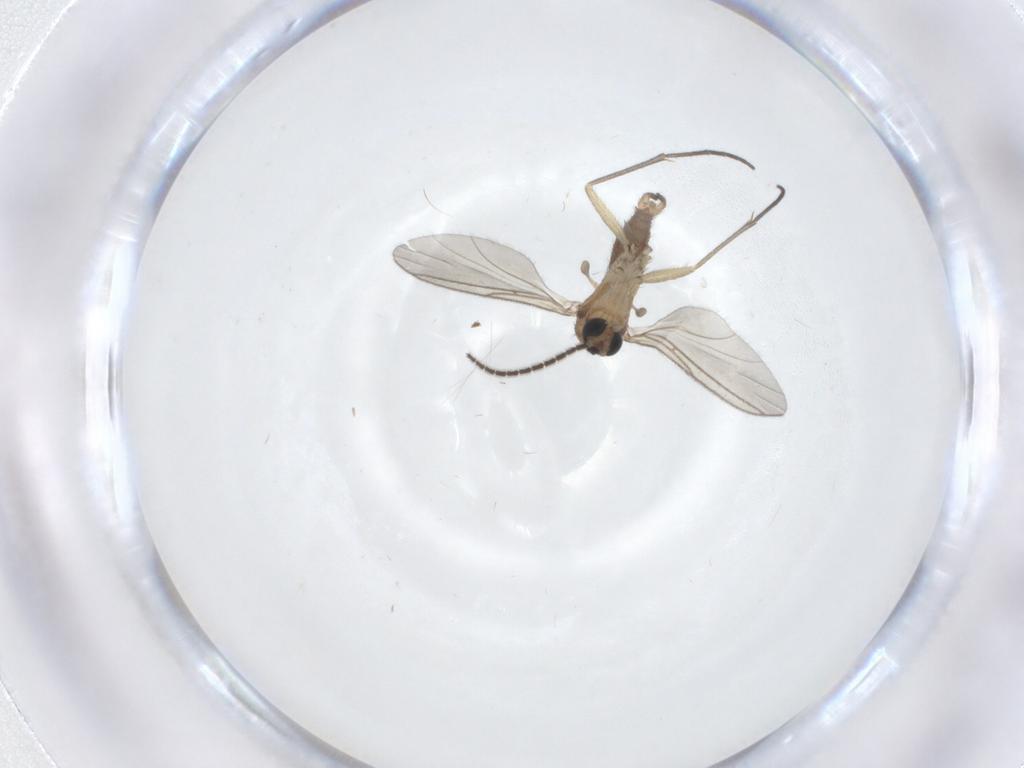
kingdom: Animalia
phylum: Arthropoda
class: Insecta
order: Diptera
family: Sciaridae
